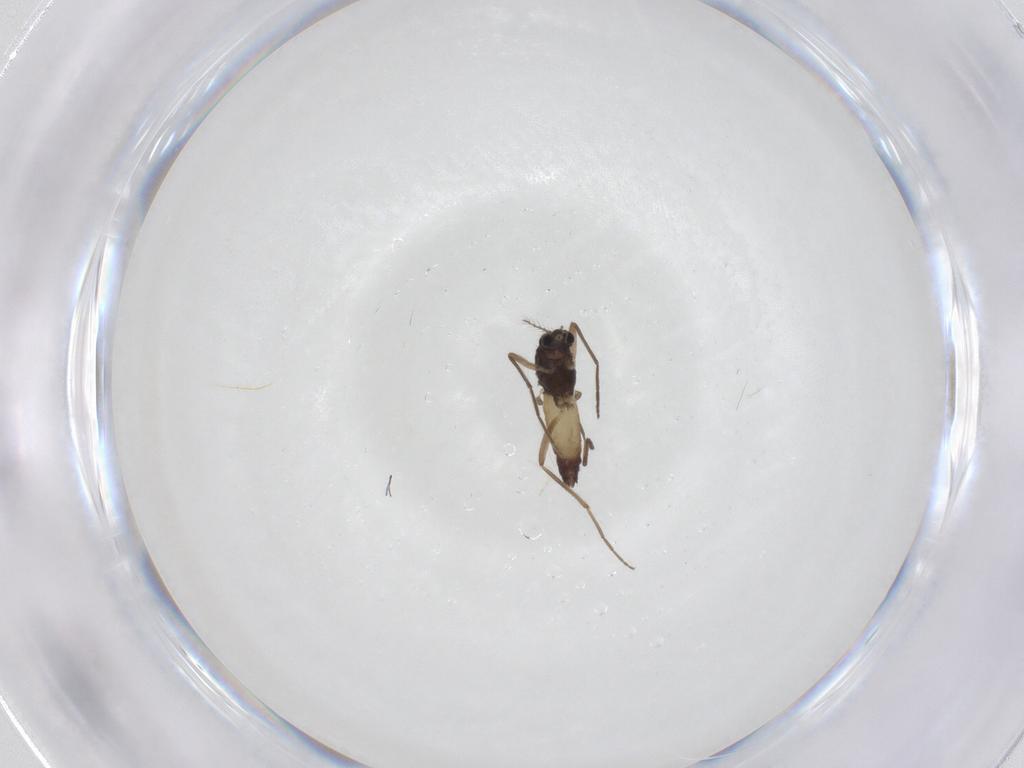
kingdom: Animalia
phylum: Arthropoda
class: Insecta
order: Diptera
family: Chironomidae
